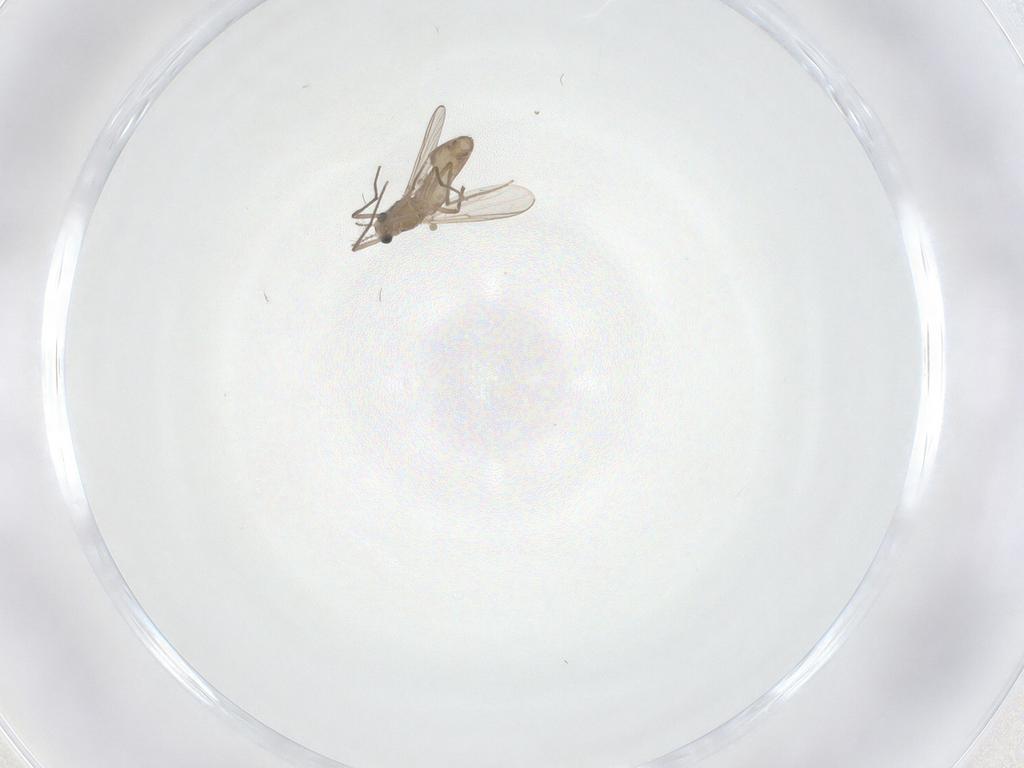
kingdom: Animalia
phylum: Arthropoda
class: Insecta
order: Diptera
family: Chironomidae
